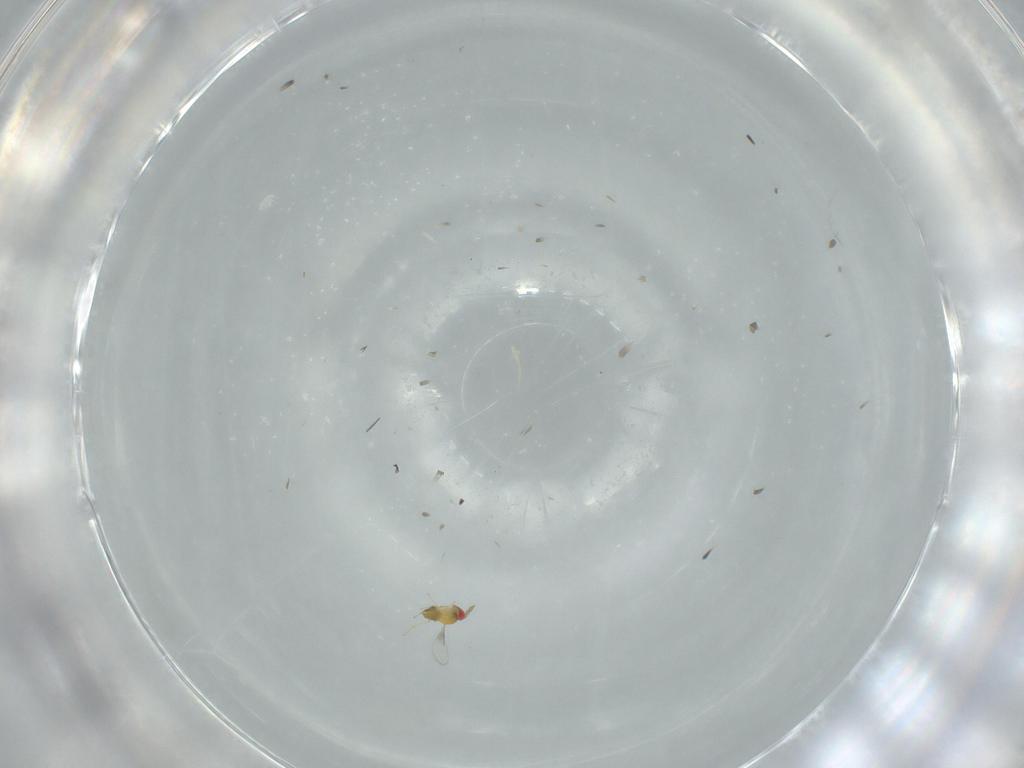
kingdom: Animalia
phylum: Arthropoda
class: Insecta
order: Hymenoptera
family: Trichogrammatidae
